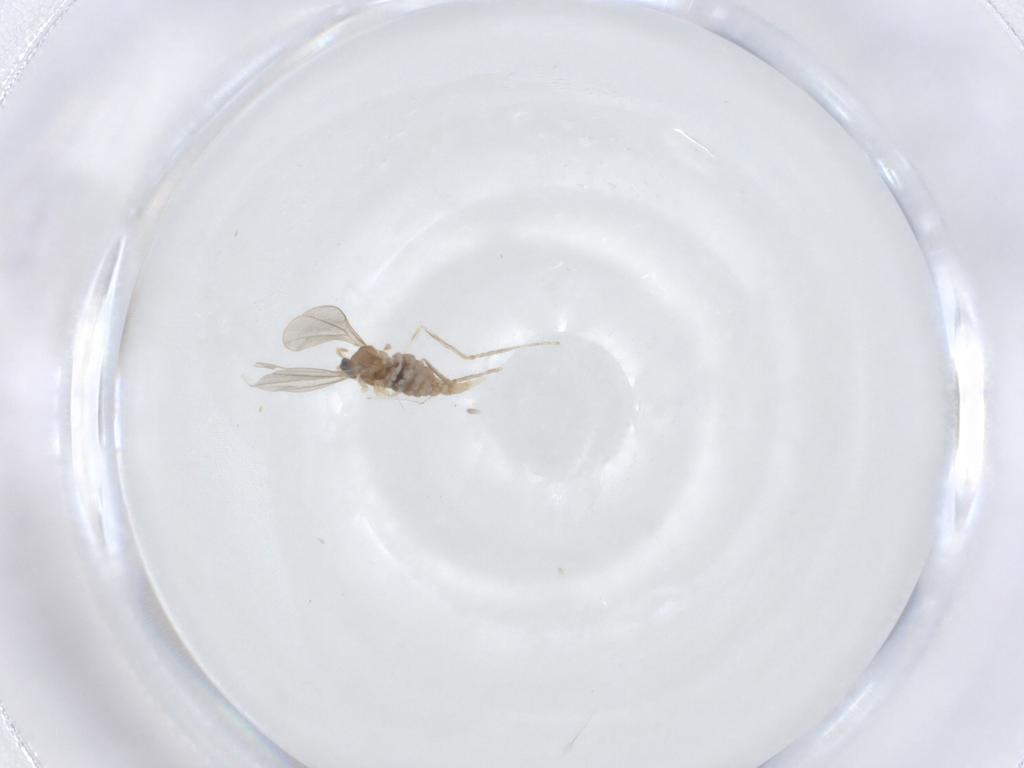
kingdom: Animalia
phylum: Arthropoda
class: Insecta
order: Diptera
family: Cecidomyiidae
